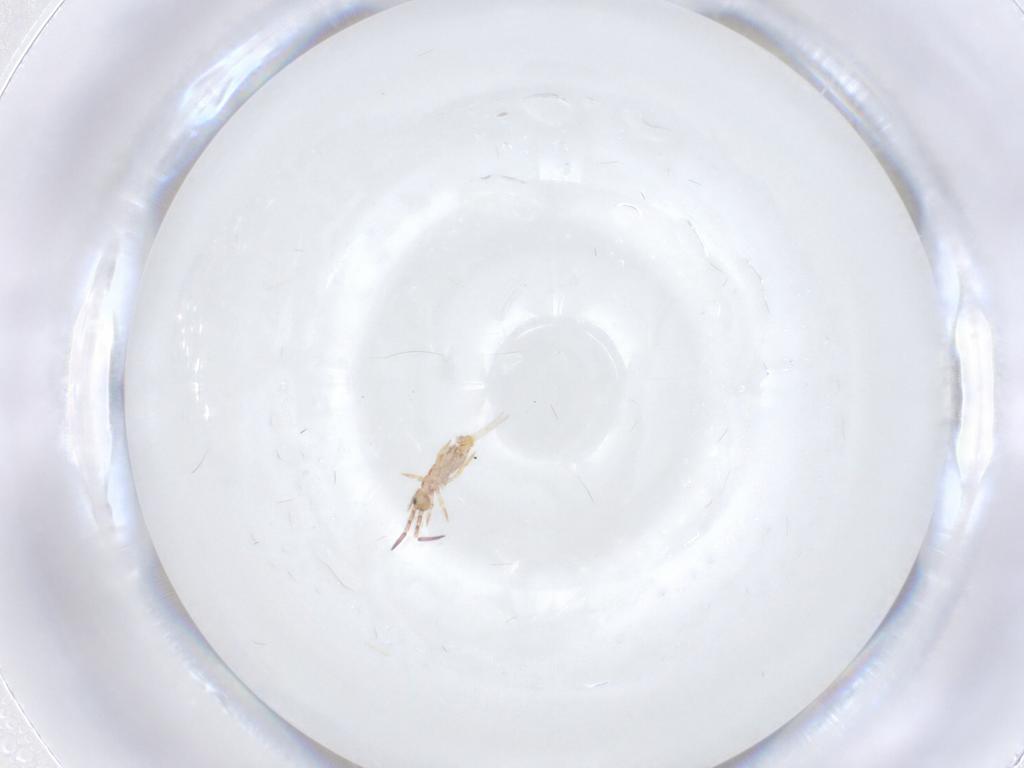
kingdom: Animalia
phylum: Arthropoda
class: Collembola
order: Entomobryomorpha
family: Entomobryidae
